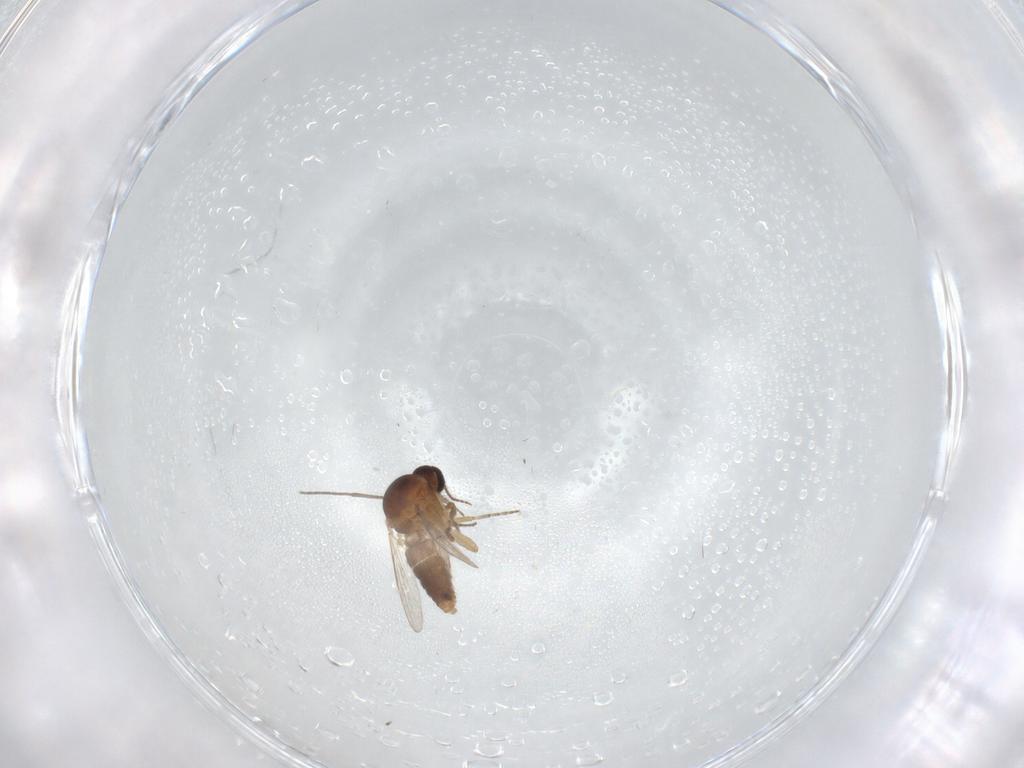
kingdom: Animalia
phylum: Arthropoda
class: Insecta
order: Diptera
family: Ceratopogonidae
